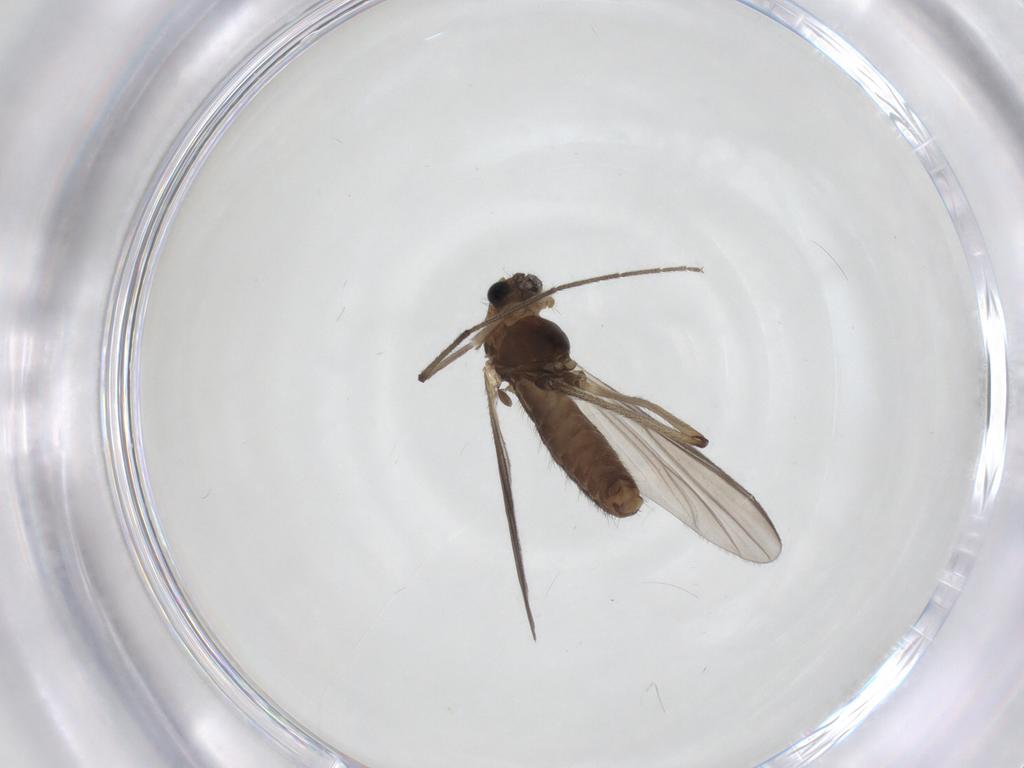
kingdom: Animalia
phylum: Arthropoda
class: Insecta
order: Diptera
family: Chironomidae
